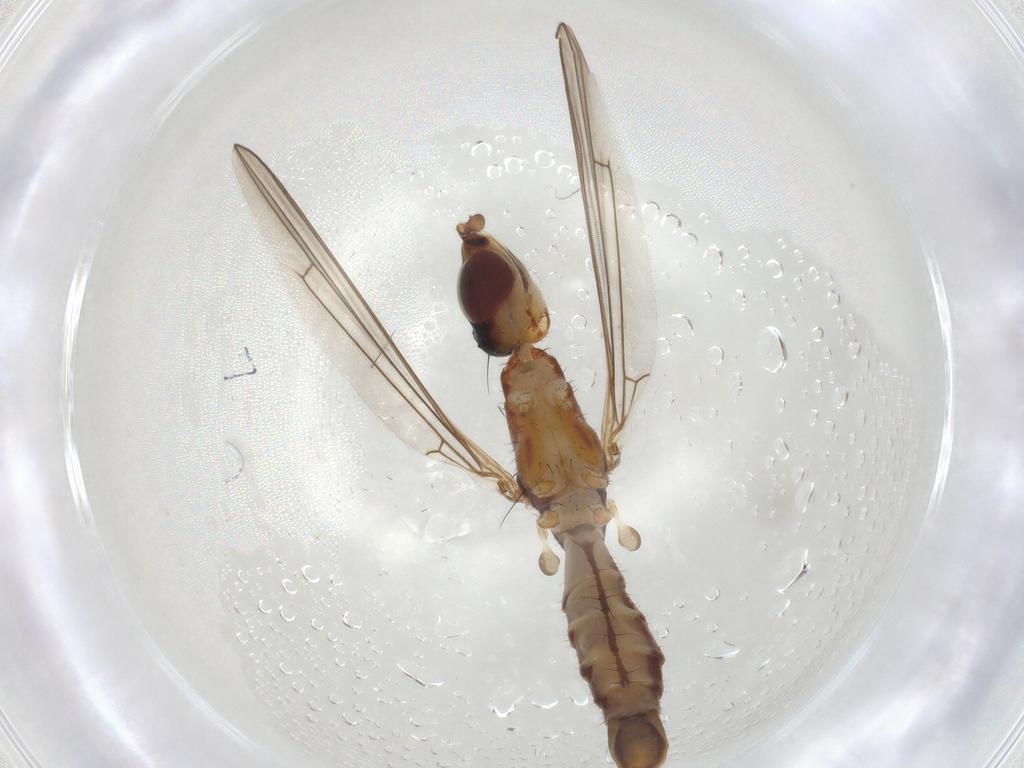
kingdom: Animalia
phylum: Arthropoda
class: Insecta
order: Diptera
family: Micropezidae
